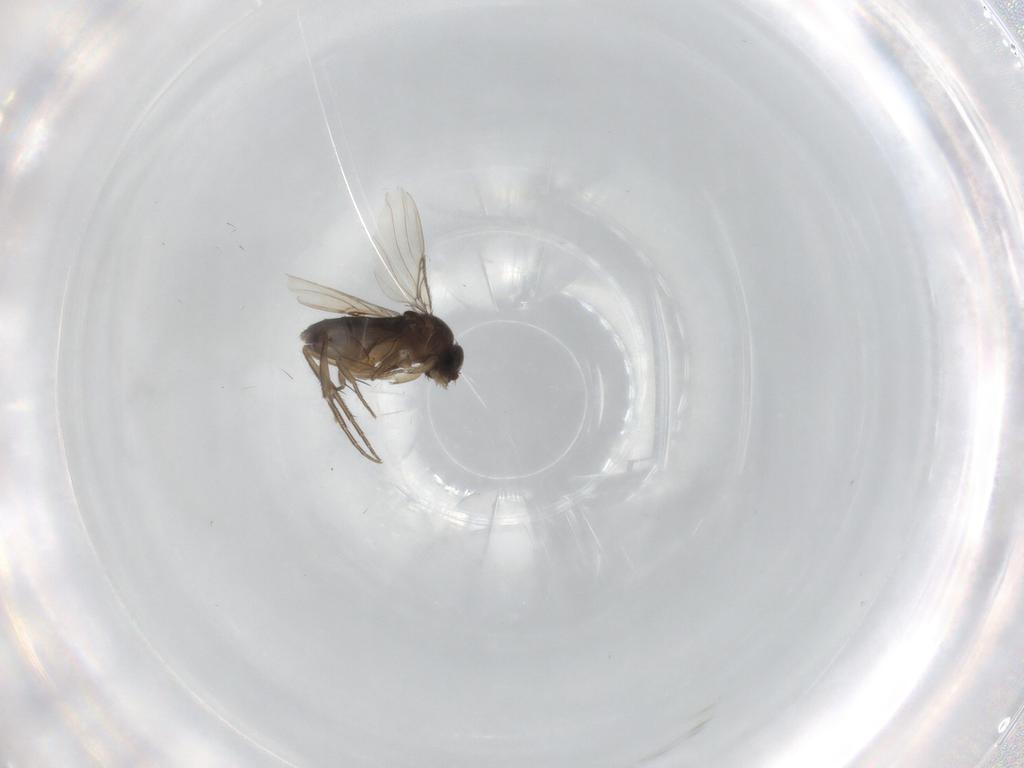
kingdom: Animalia
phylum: Arthropoda
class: Insecta
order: Diptera
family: Phoridae
